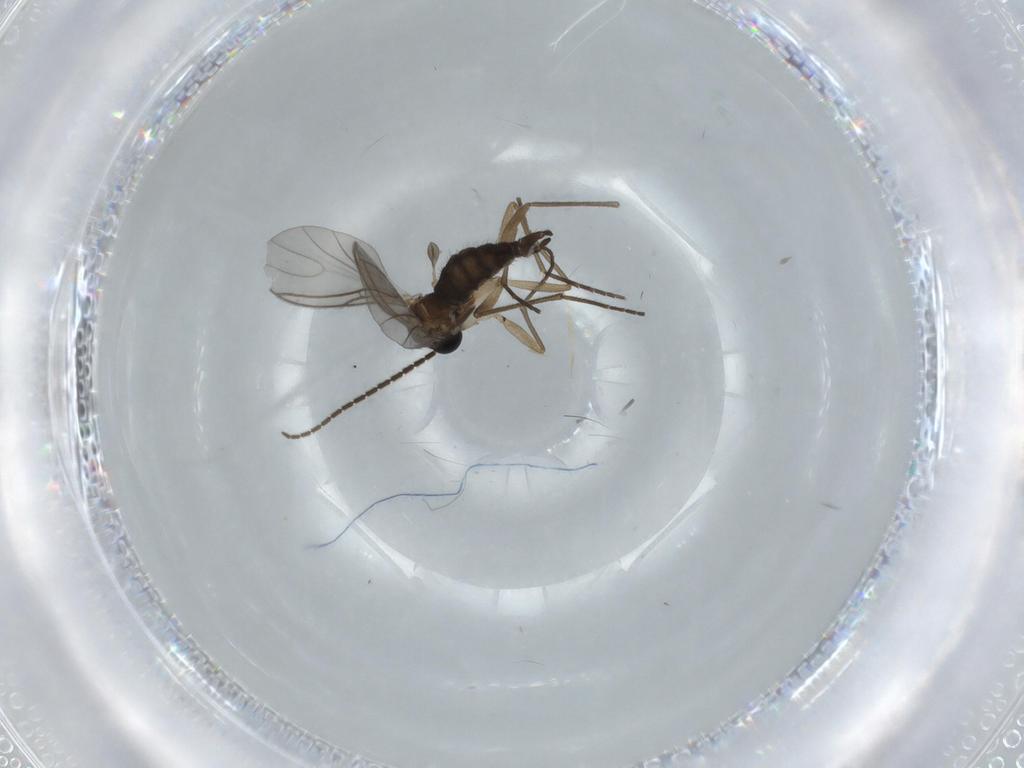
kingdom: Animalia
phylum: Arthropoda
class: Insecta
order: Diptera
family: Sciaridae
